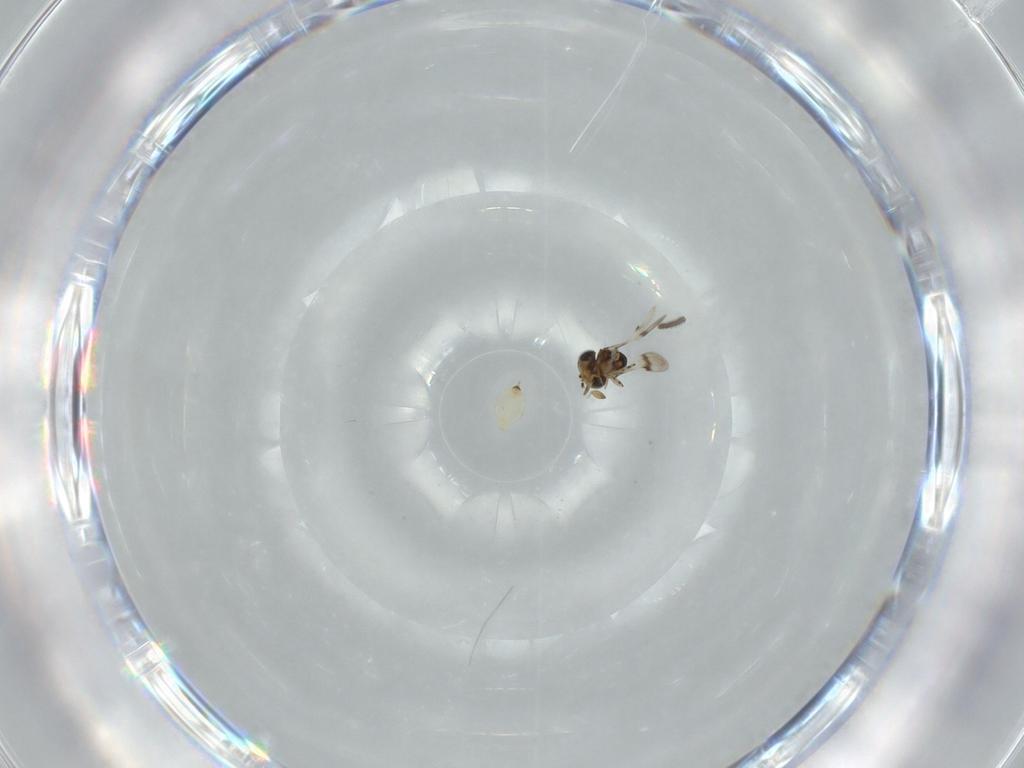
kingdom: Animalia
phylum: Arthropoda
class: Insecta
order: Hymenoptera
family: Scelionidae
